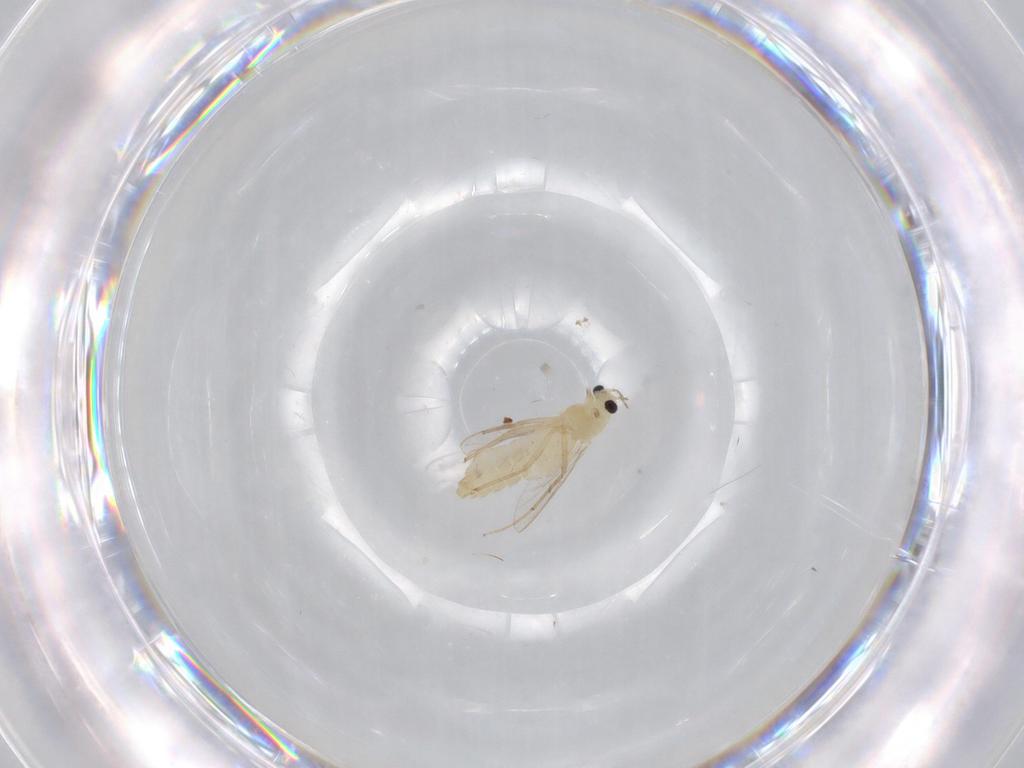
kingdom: Animalia
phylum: Arthropoda
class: Insecta
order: Diptera
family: Chironomidae
